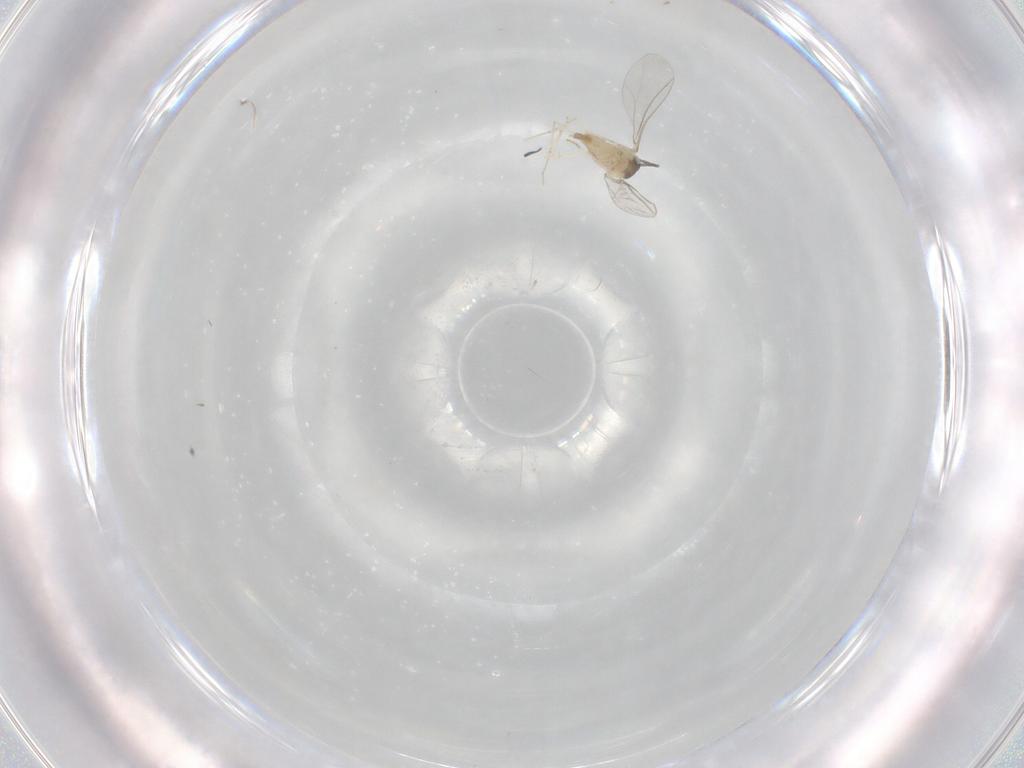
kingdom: Animalia
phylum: Arthropoda
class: Insecta
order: Diptera
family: Cecidomyiidae
